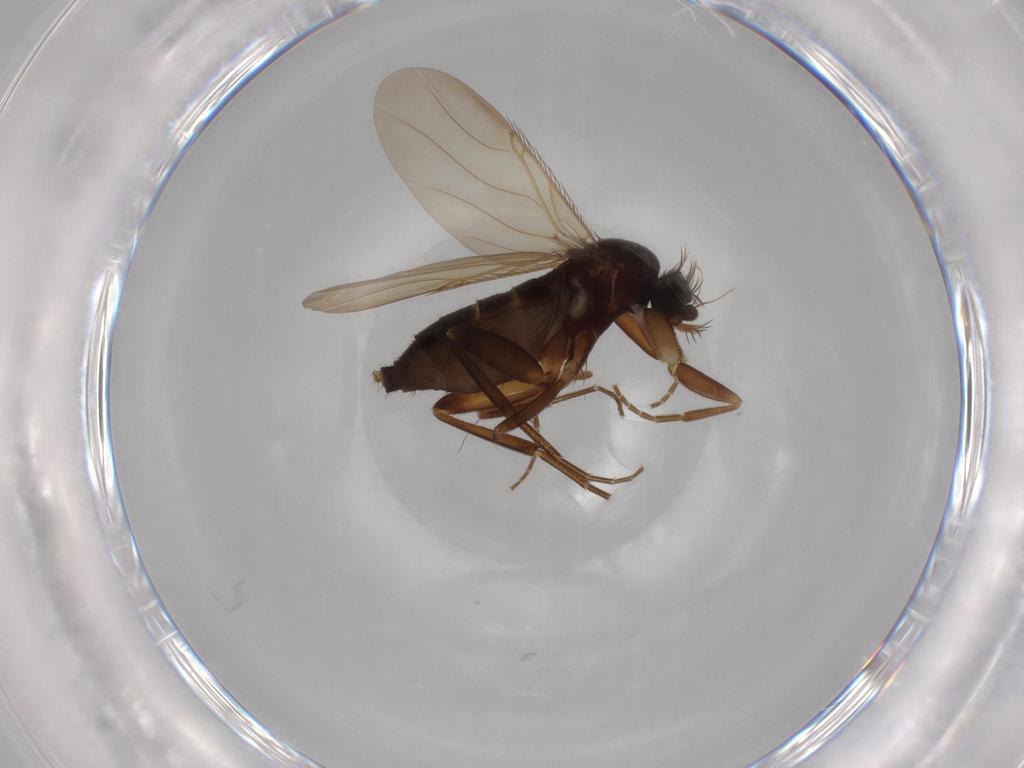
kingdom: Animalia
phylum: Arthropoda
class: Insecta
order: Diptera
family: Phoridae
